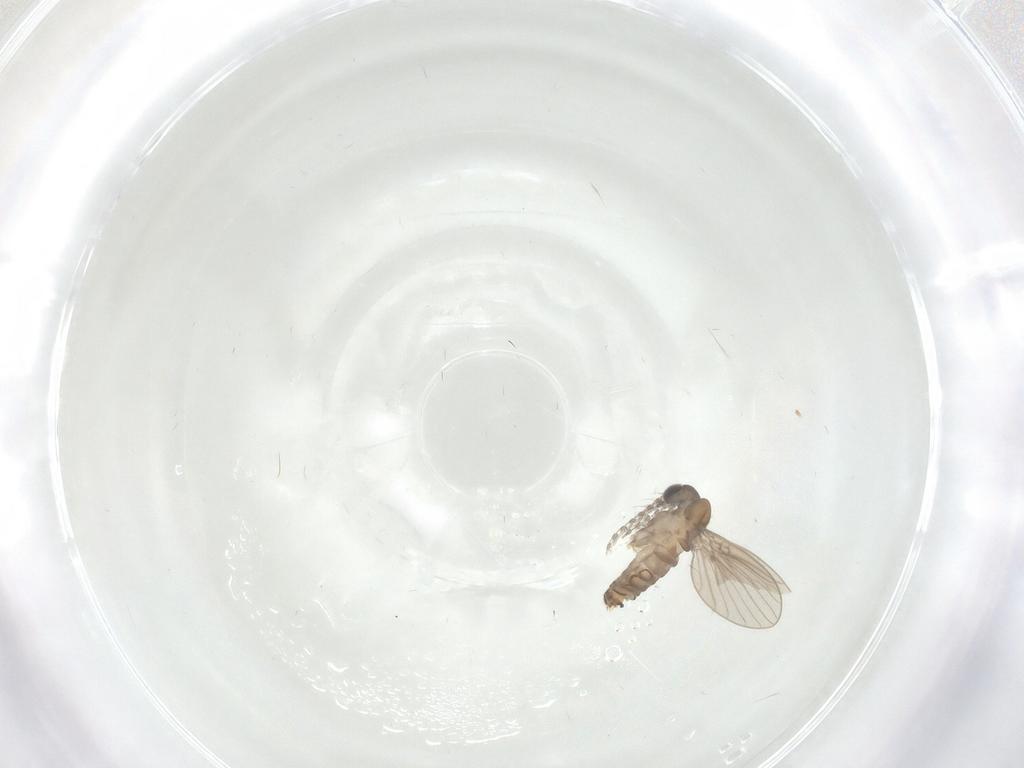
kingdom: Animalia
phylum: Arthropoda
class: Insecta
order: Diptera
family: Psychodidae
